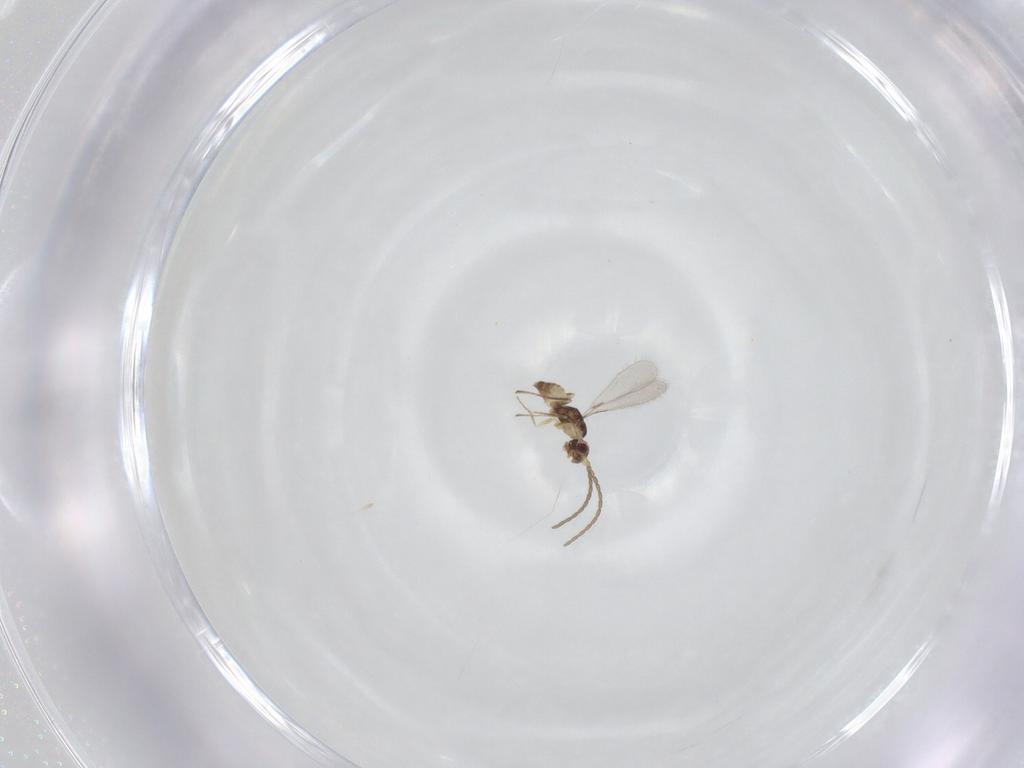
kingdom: Animalia
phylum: Arthropoda
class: Insecta
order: Hymenoptera
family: Mymaridae
